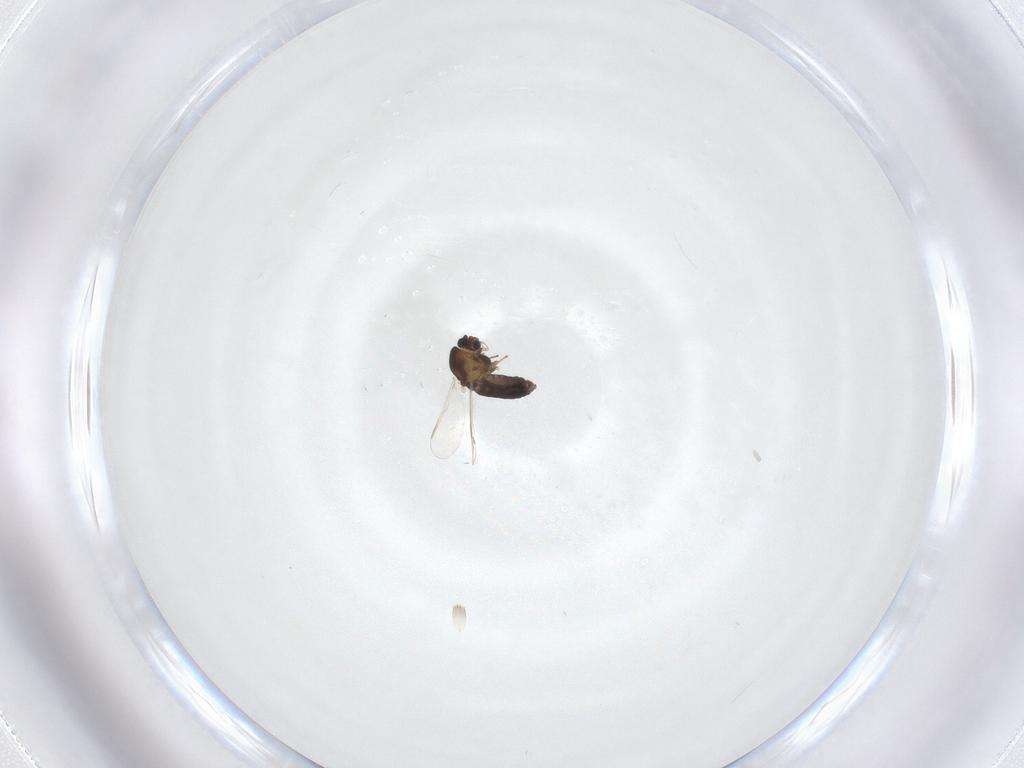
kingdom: Animalia
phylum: Arthropoda
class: Insecta
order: Diptera
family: Chironomidae
